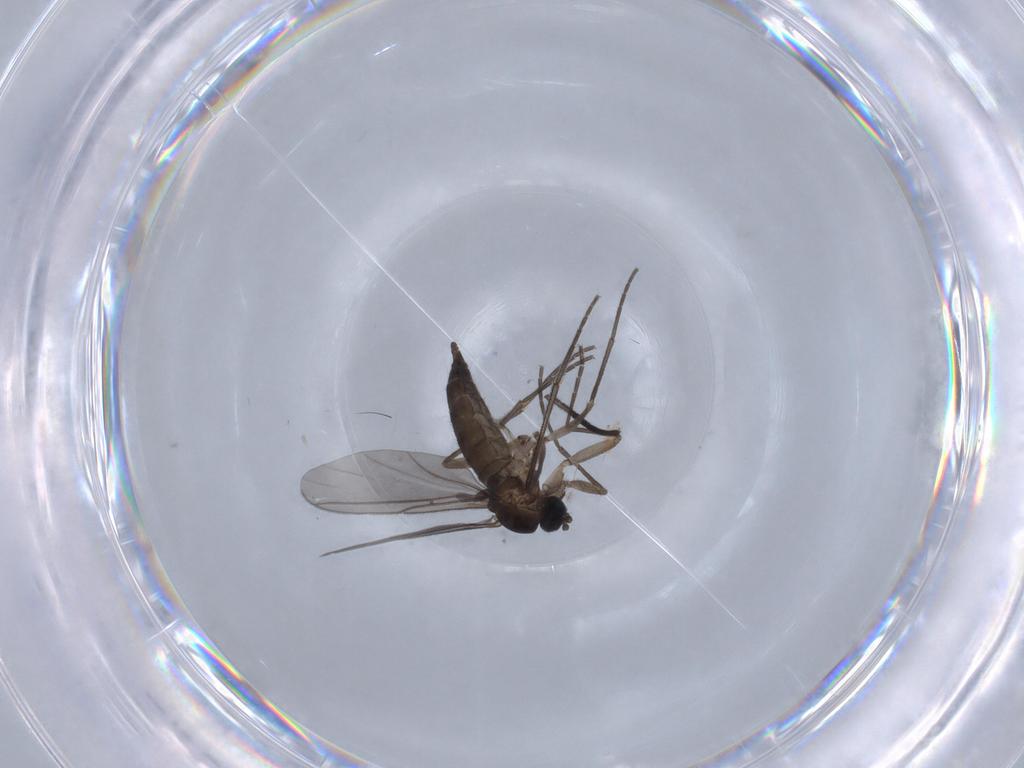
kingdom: Animalia
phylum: Arthropoda
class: Insecta
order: Diptera
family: Sciaridae
